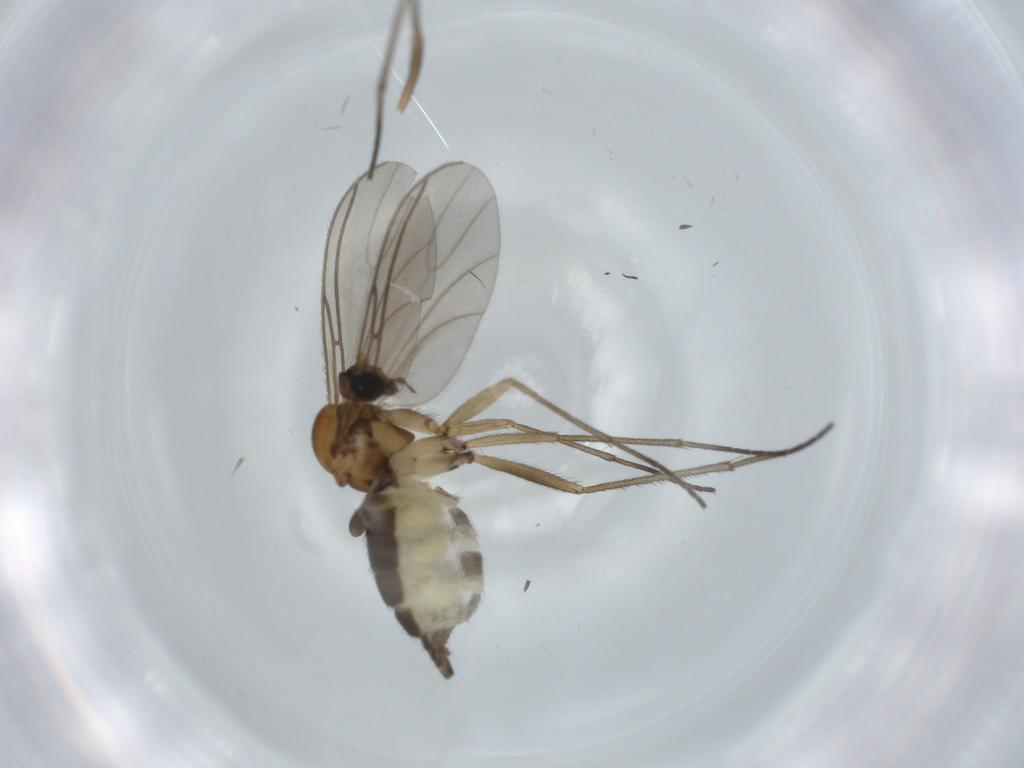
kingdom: Animalia
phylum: Arthropoda
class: Insecta
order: Diptera
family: Sciaridae
